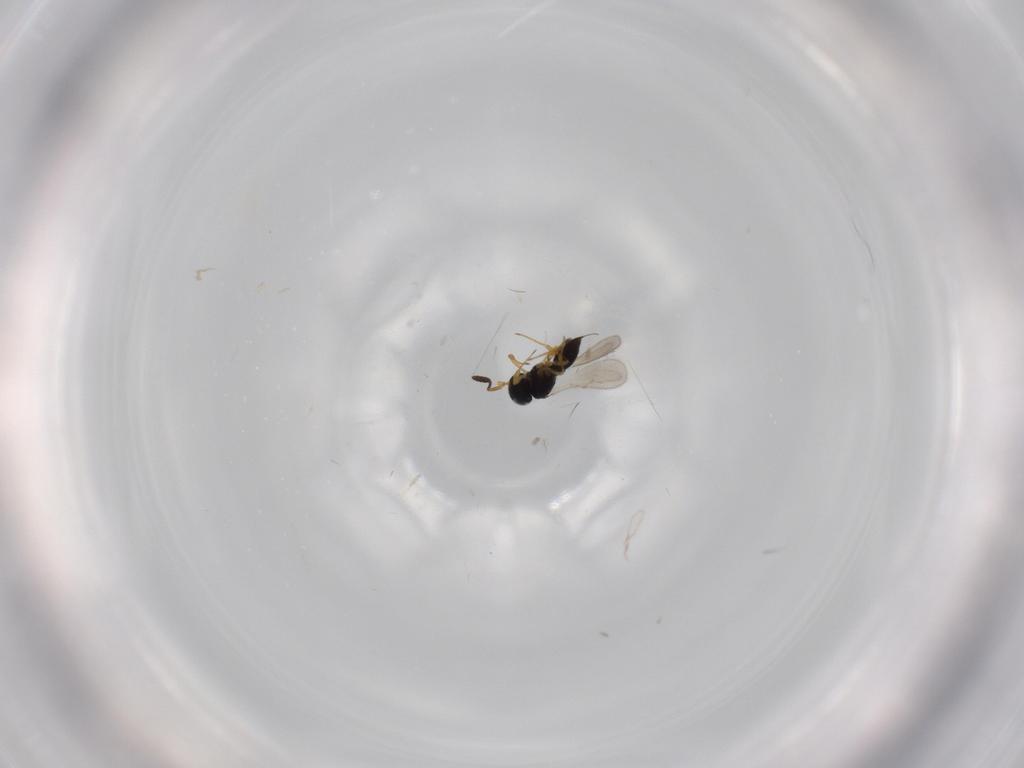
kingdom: Animalia
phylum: Arthropoda
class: Insecta
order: Hymenoptera
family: Scelionidae
